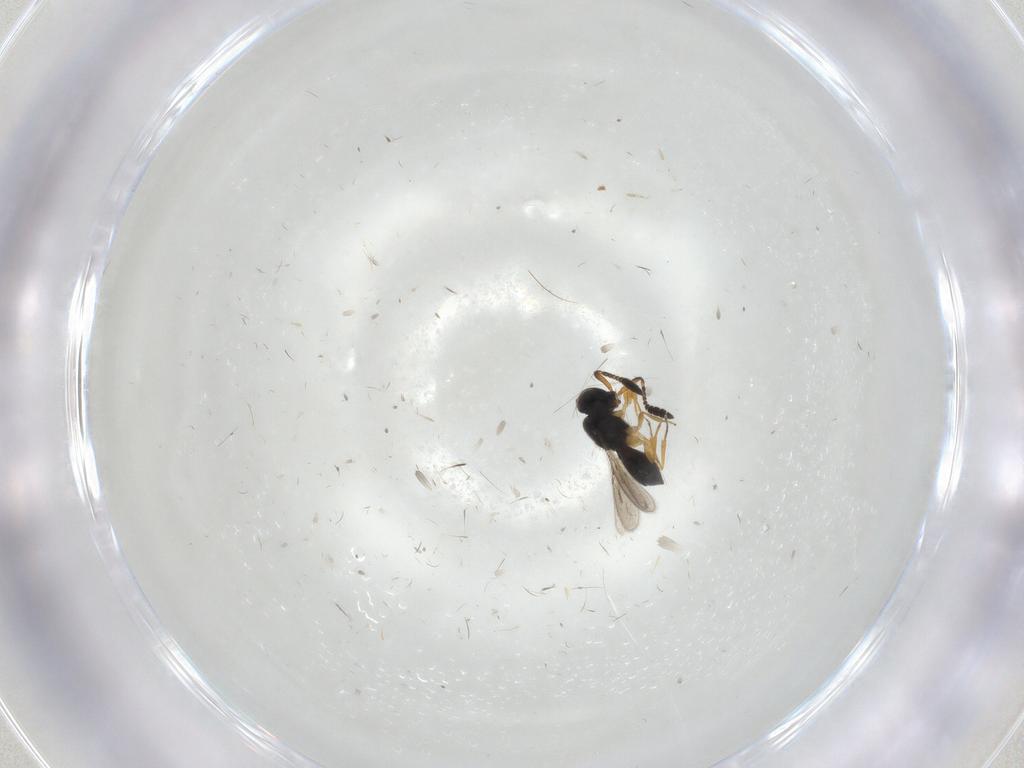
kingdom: Animalia
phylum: Arthropoda
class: Insecta
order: Hymenoptera
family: Scelionidae
